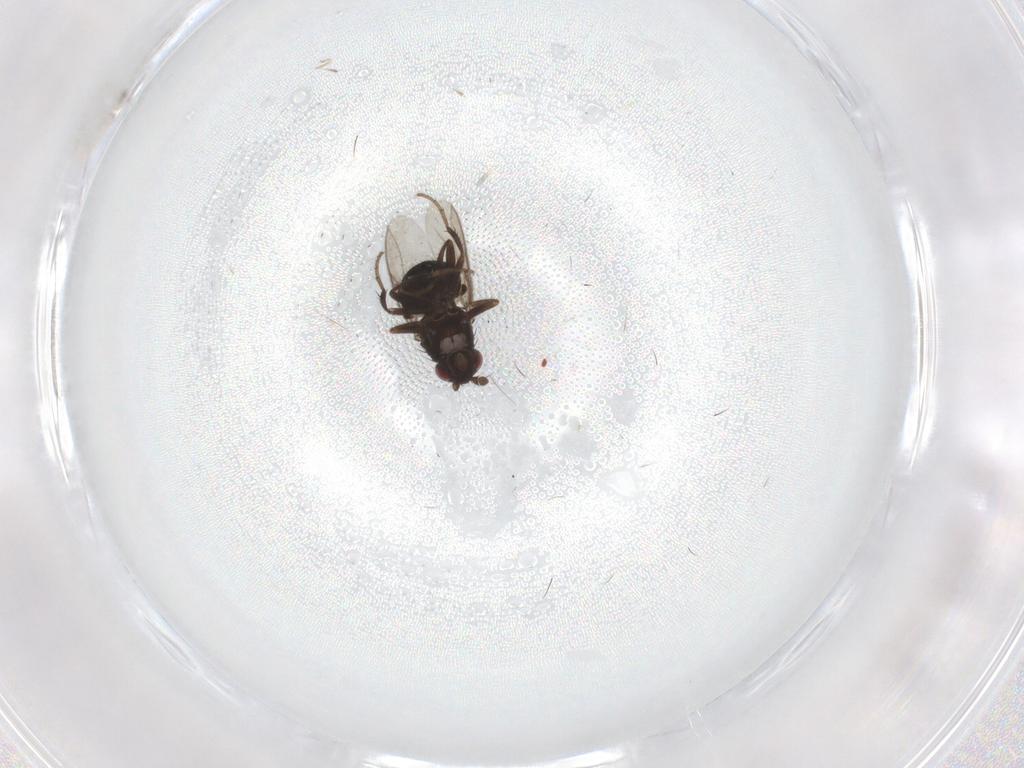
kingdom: Animalia
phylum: Arthropoda
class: Insecta
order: Diptera
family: Phoridae
